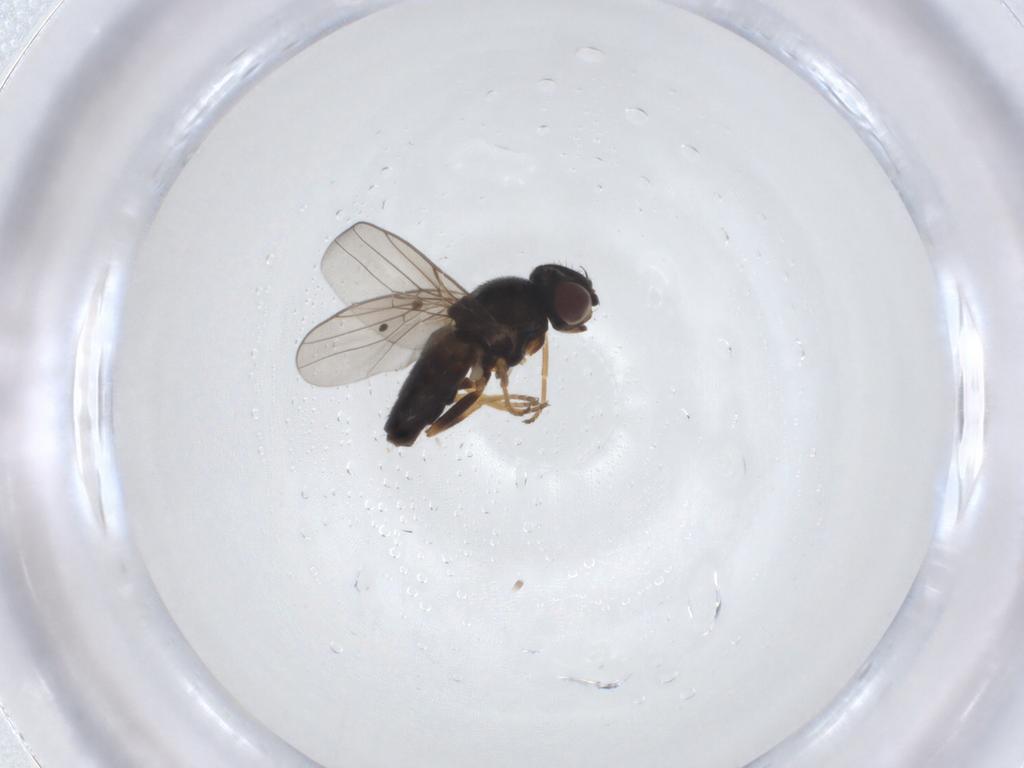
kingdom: Animalia
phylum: Arthropoda
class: Insecta
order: Diptera
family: Chloropidae
